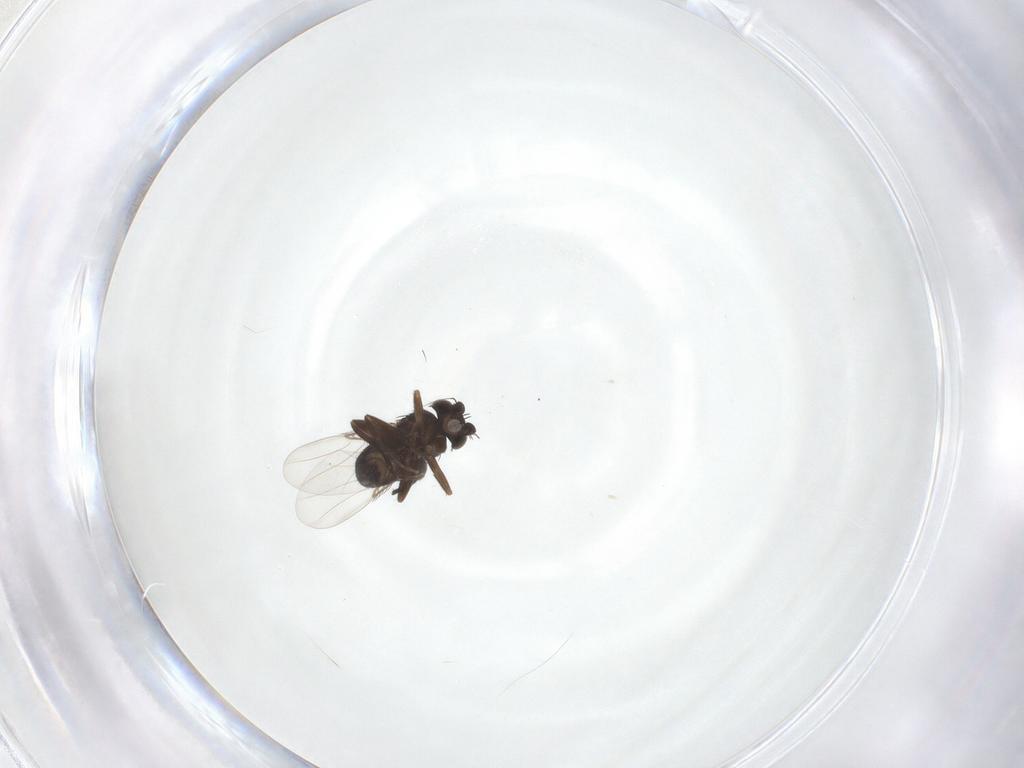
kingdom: Animalia
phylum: Arthropoda
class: Insecta
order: Diptera
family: Phoridae
